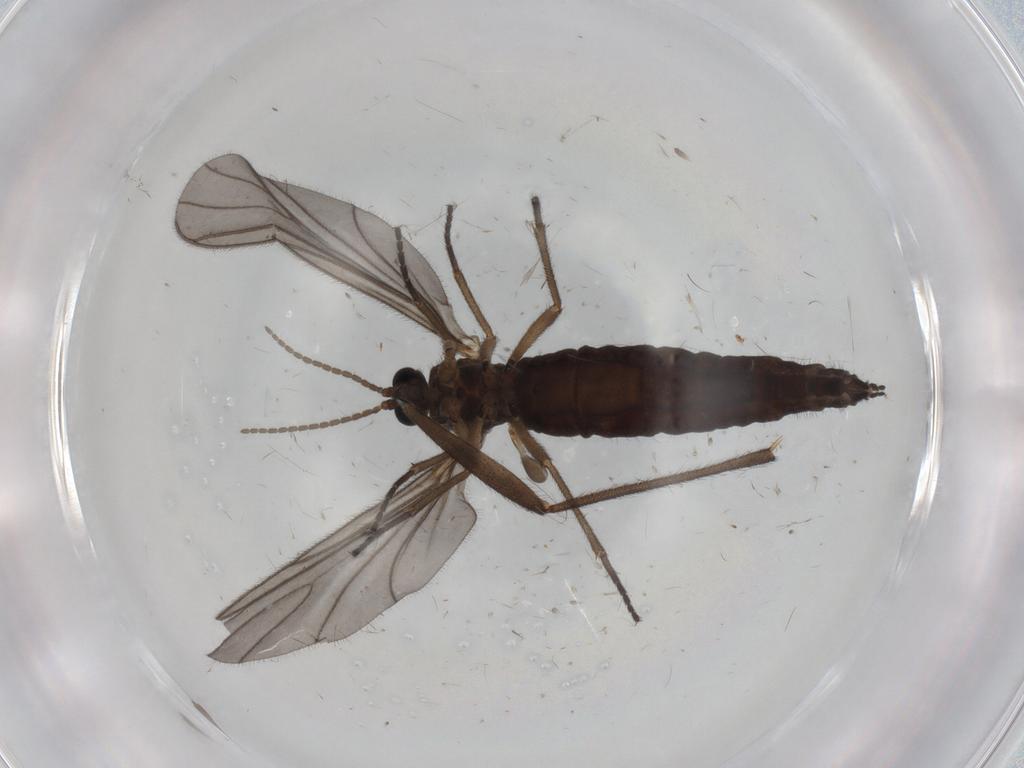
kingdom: Animalia
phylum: Arthropoda
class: Insecta
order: Diptera
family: Sciaridae
